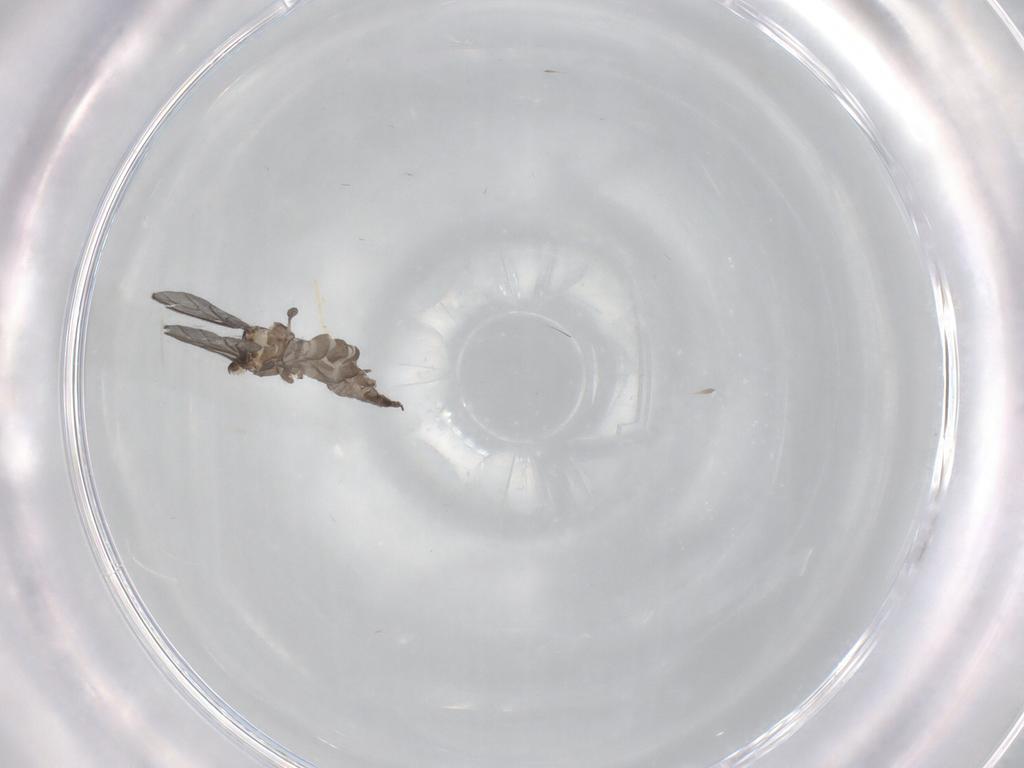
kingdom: Animalia
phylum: Arthropoda
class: Insecta
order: Diptera
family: Sciaridae
